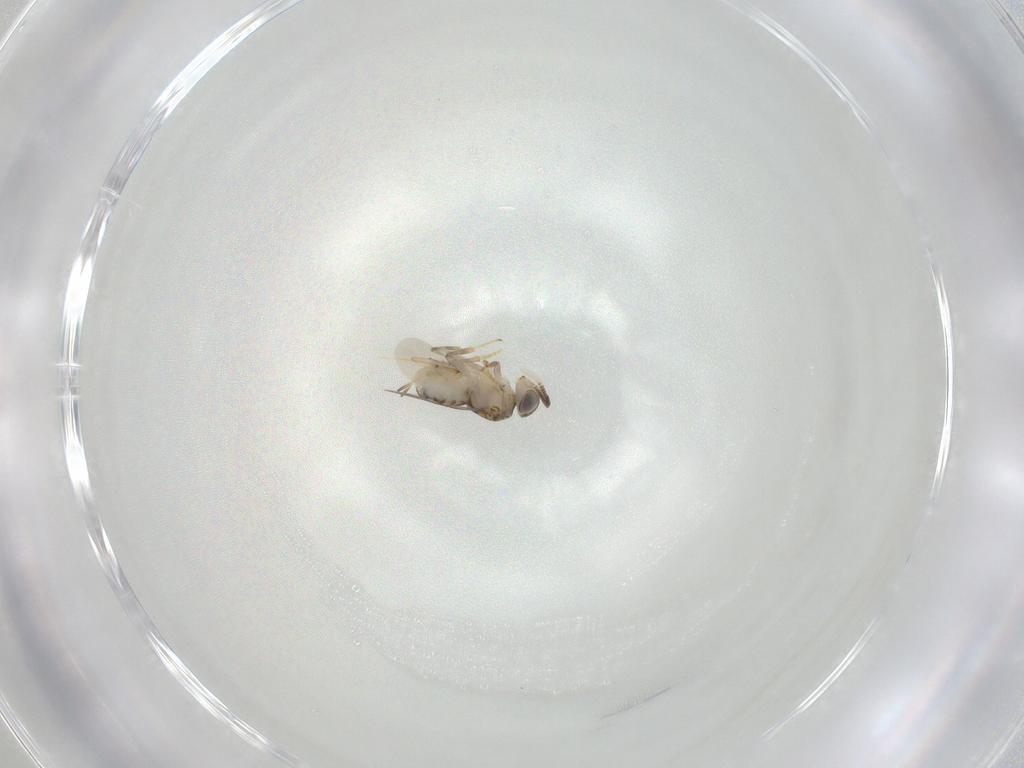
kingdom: Animalia
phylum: Arthropoda
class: Insecta
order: Hymenoptera
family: Encyrtidae
